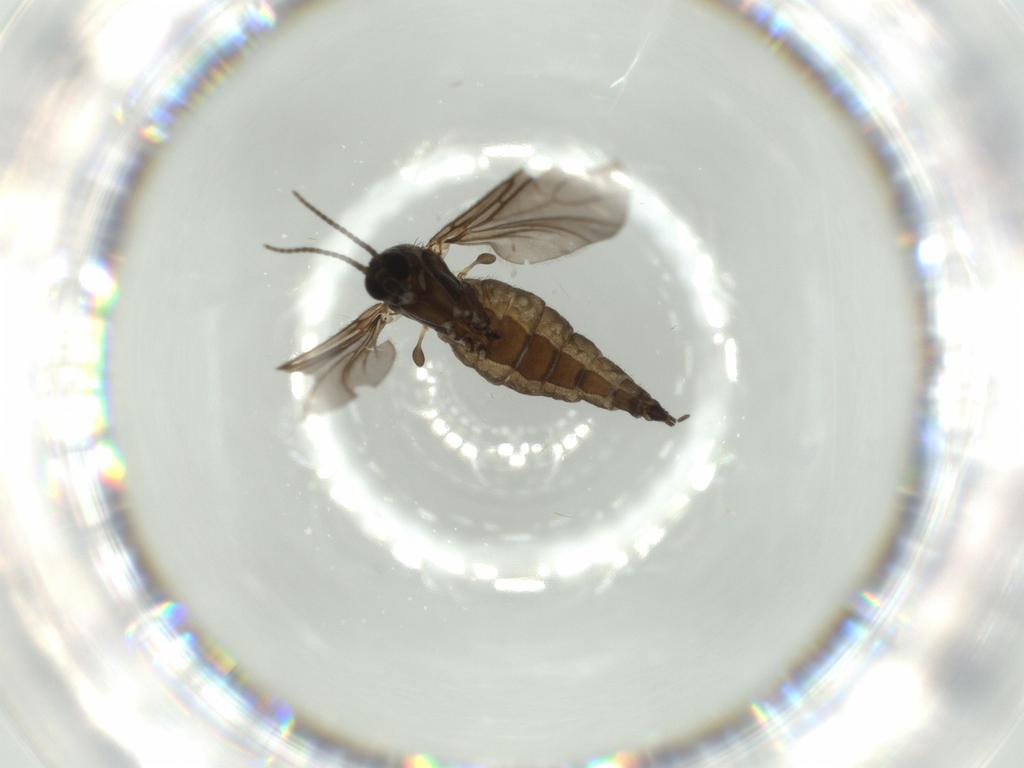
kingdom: Animalia
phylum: Arthropoda
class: Insecta
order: Diptera
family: Sciaridae
